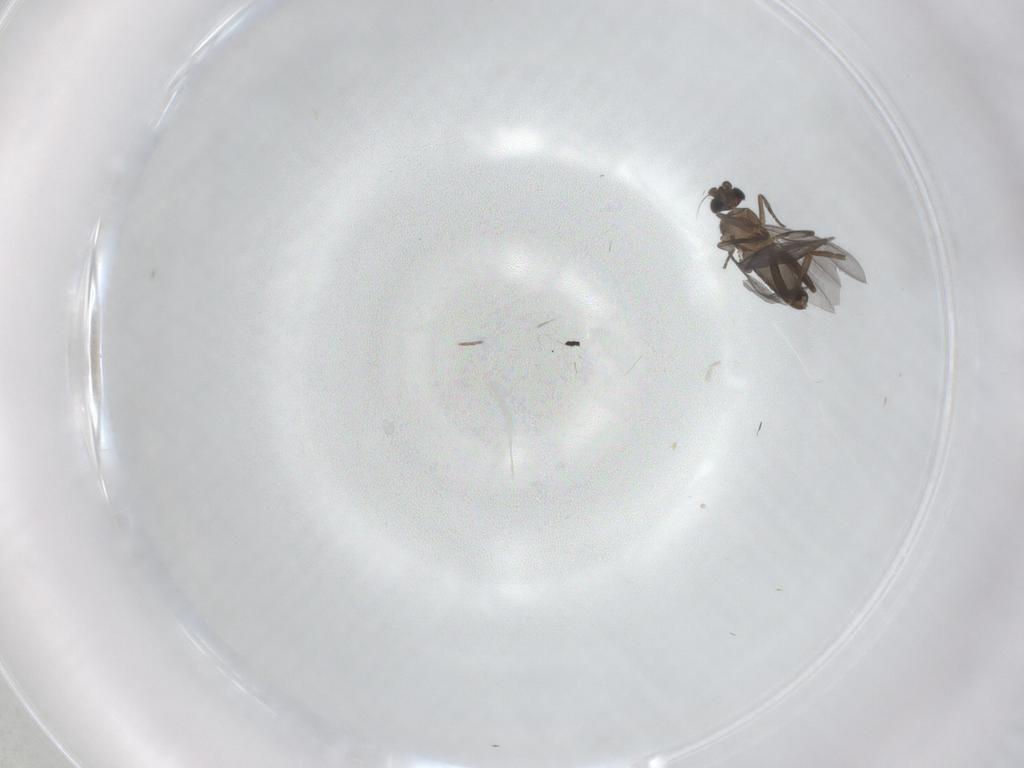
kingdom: Animalia
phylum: Arthropoda
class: Insecta
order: Diptera
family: Phoridae
